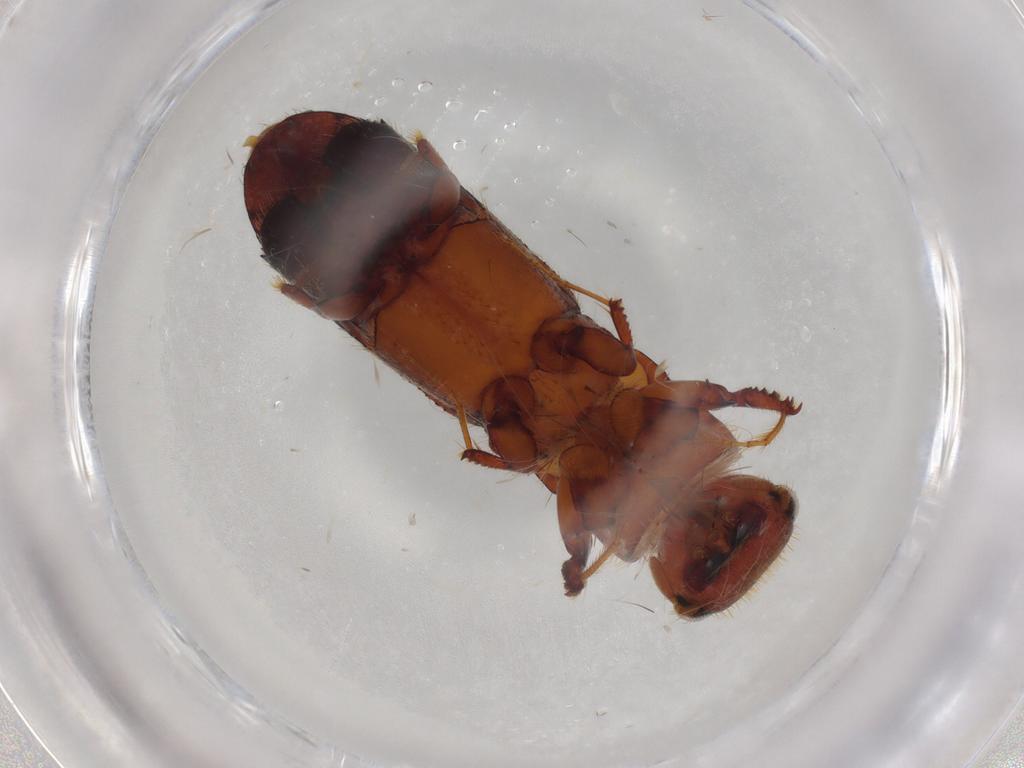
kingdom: Animalia
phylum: Arthropoda
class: Insecta
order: Coleoptera
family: Curculionidae
